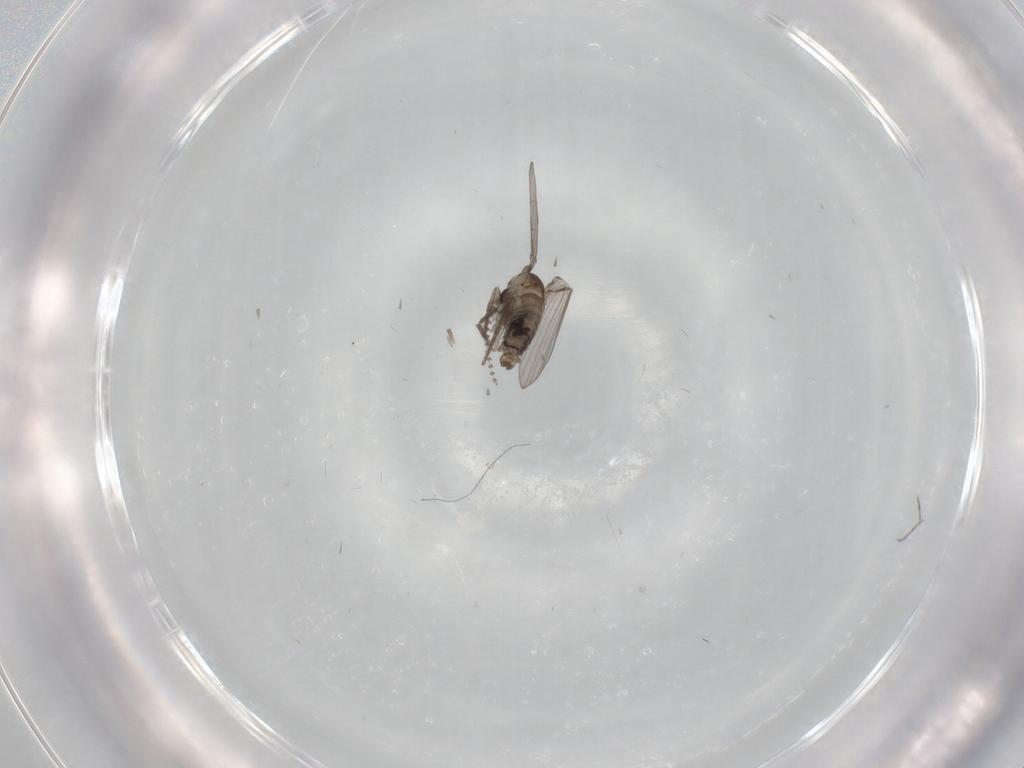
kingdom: Animalia
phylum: Arthropoda
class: Insecta
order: Diptera
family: Psychodidae
